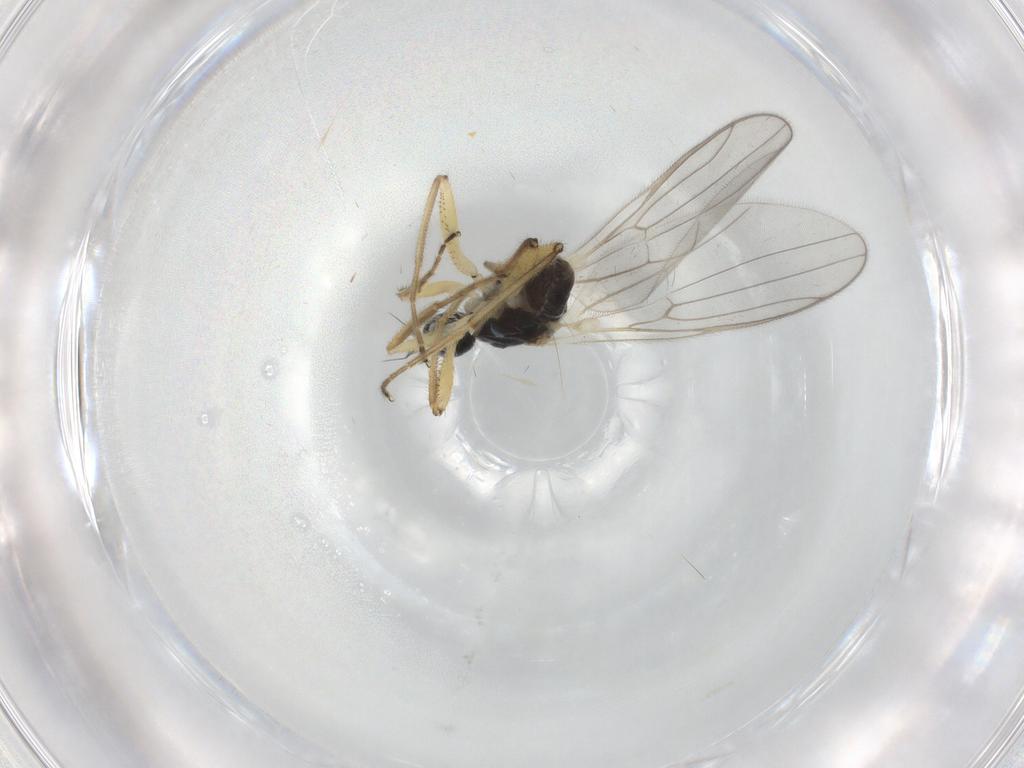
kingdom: Animalia
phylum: Arthropoda
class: Insecta
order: Diptera
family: Hybotidae
